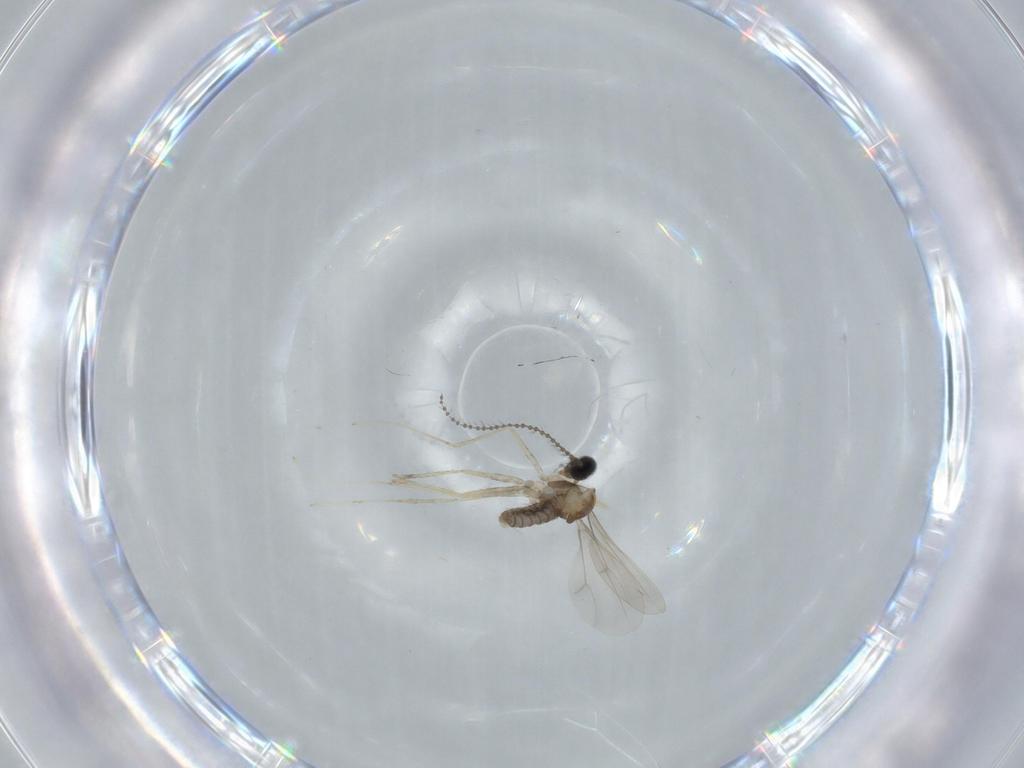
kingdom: Animalia
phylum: Arthropoda
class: Insecta
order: Diptera
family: Cecidomyiidae
